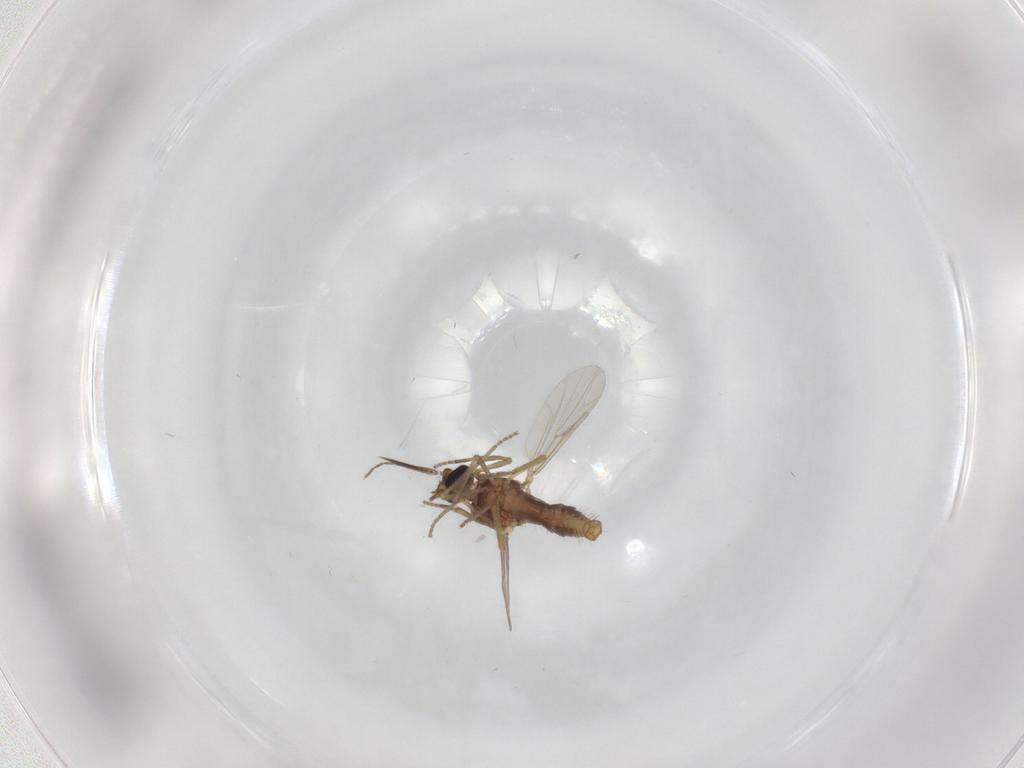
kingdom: Animalia
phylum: Arthropoda
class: Insecta
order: Diptera
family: Ceratopogonidae
